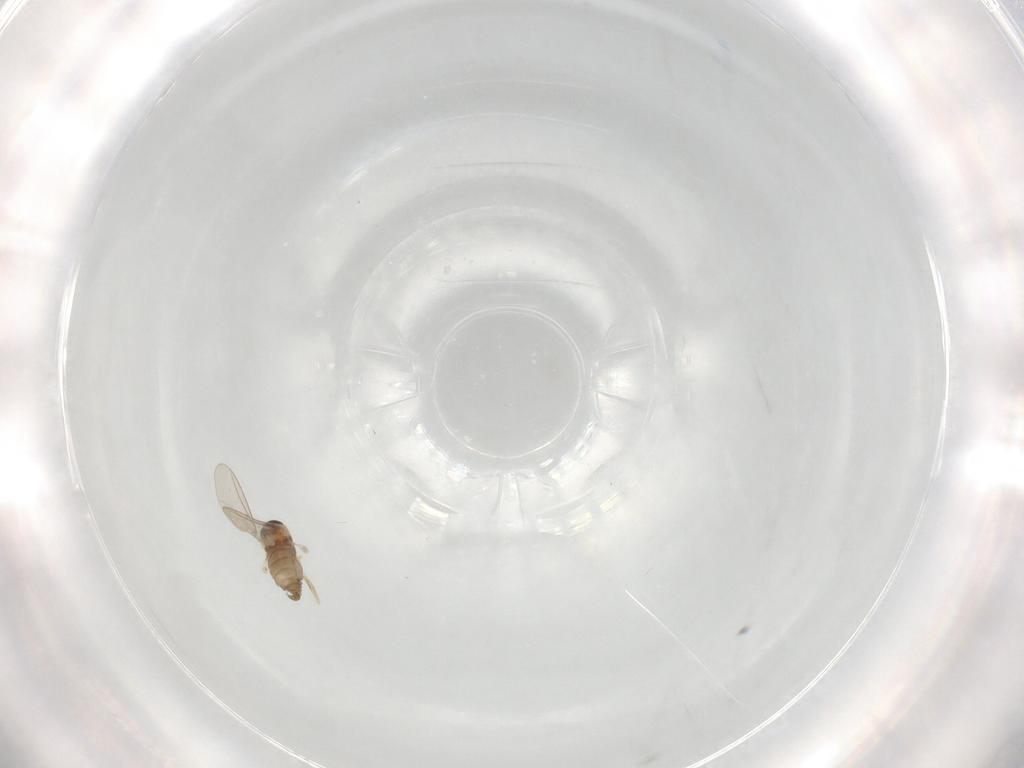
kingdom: Animalia
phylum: Arthropoda
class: Insecta
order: Diptera
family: Cecidomyiidae
